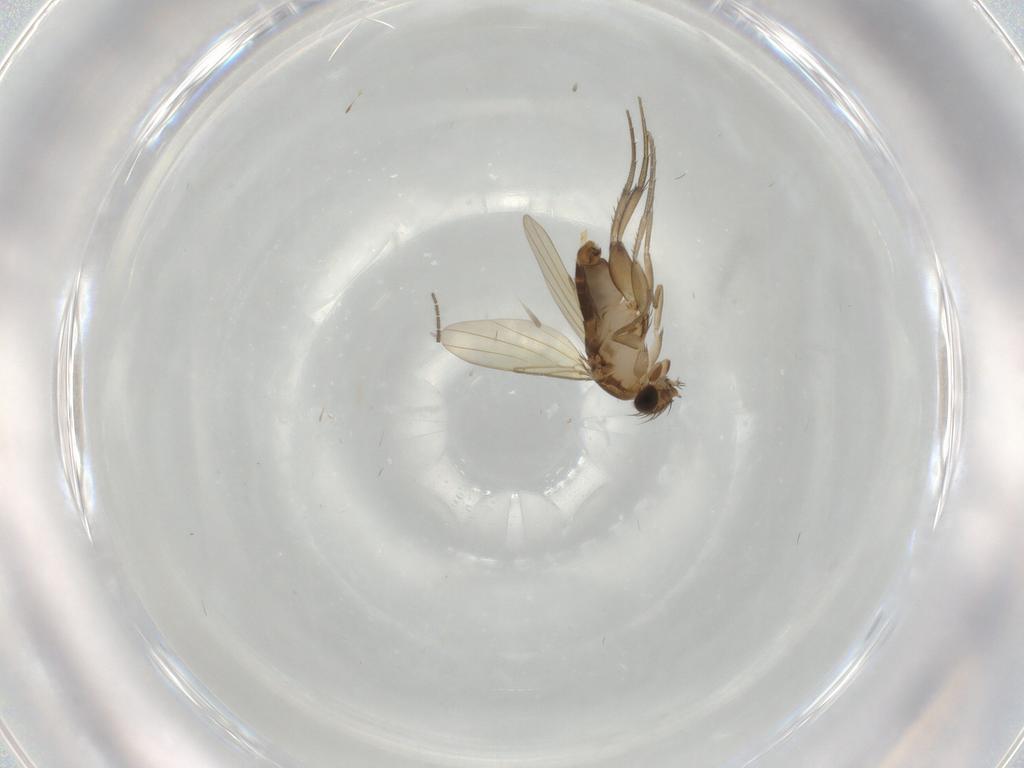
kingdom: Animalia
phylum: Arthropoda
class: Insecta
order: Diptera
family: Phoridae
